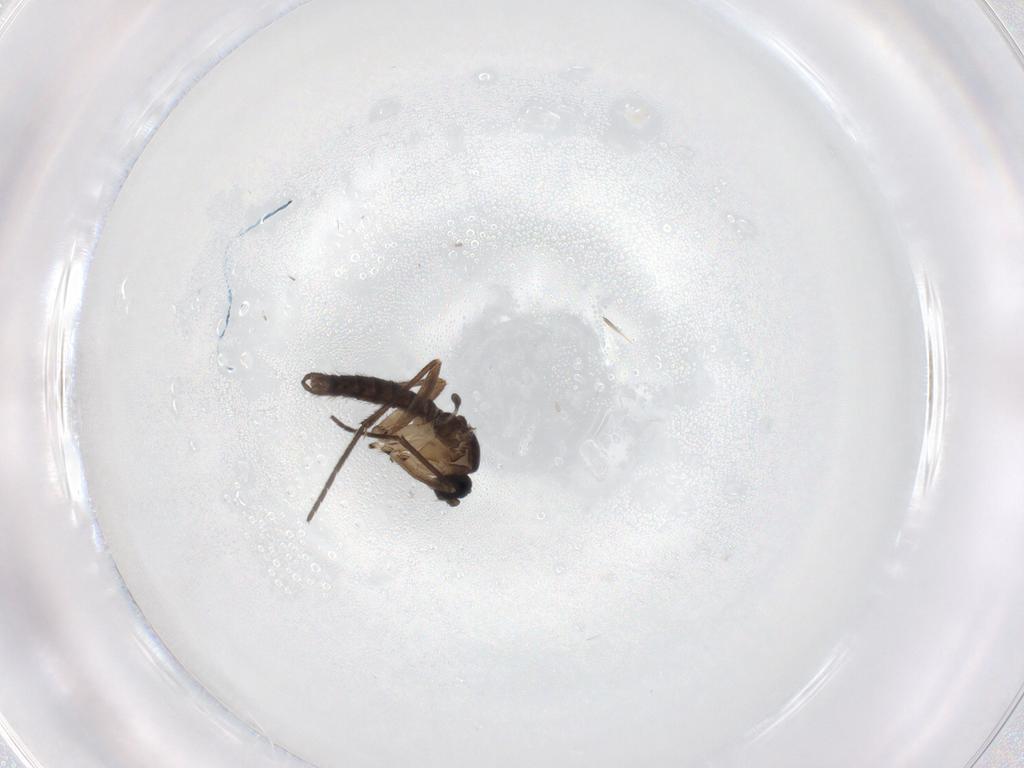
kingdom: Animalia
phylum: Arthropoda
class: Insecta
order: Diptera
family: Sciaridae
